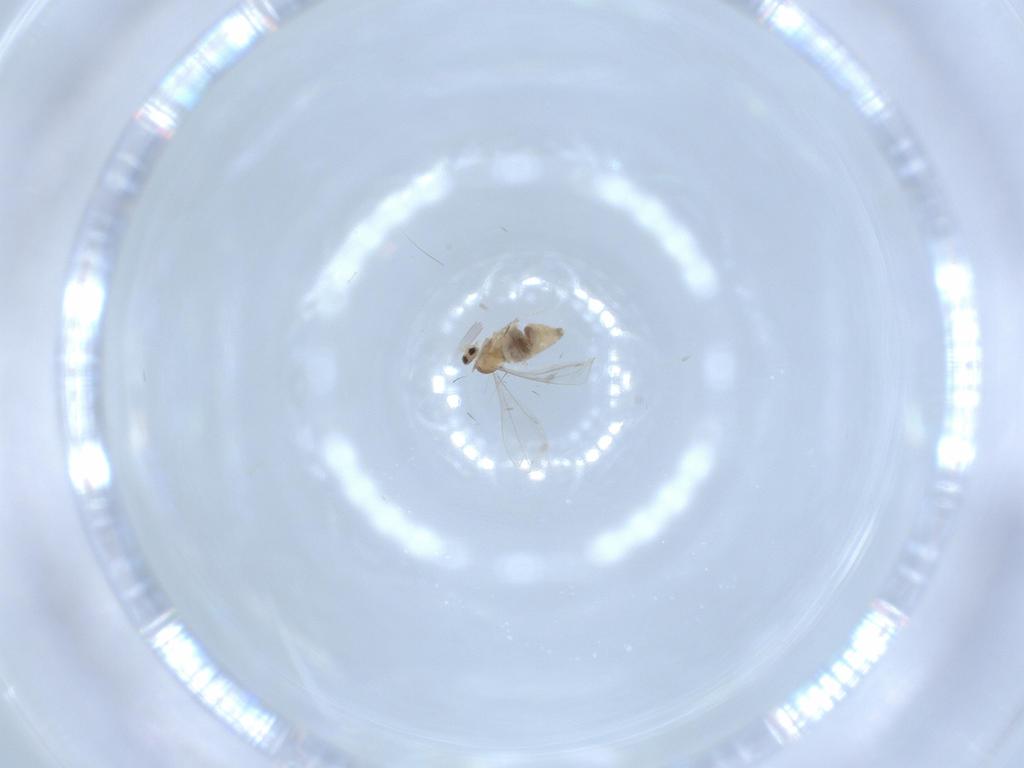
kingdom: Animalia
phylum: Arthropoda
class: Insecta
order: Diptera
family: Cecidomyiidae
